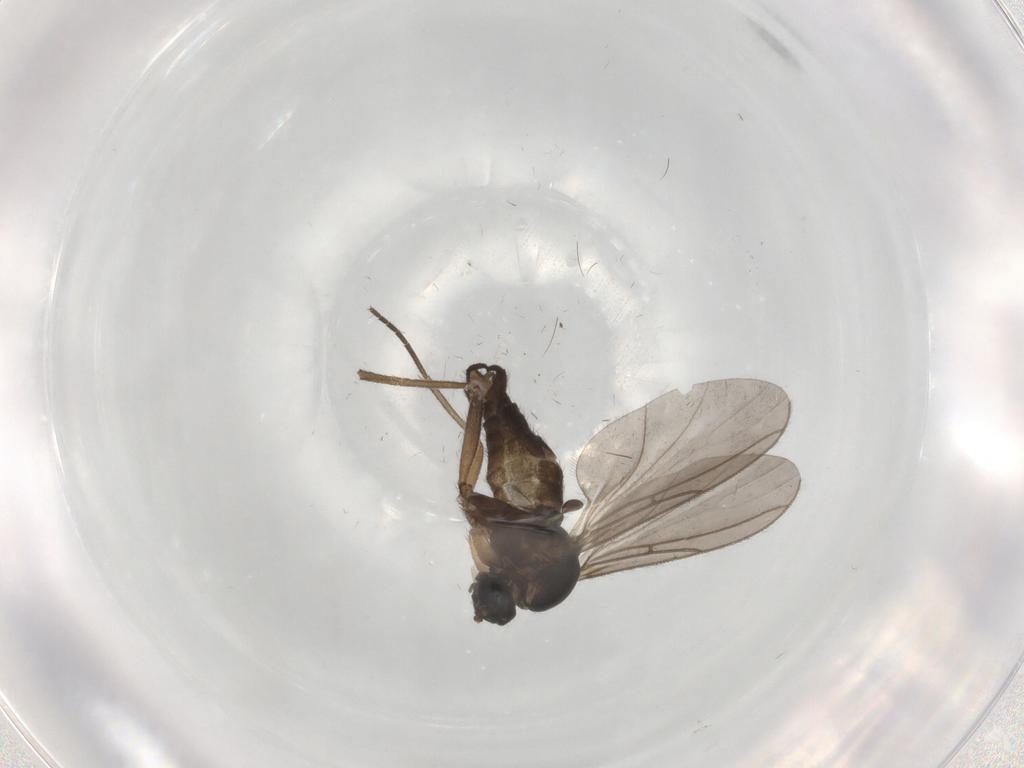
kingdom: Animalia
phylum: Arthropoda
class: Insecta
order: Diptera
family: Sciaridae
